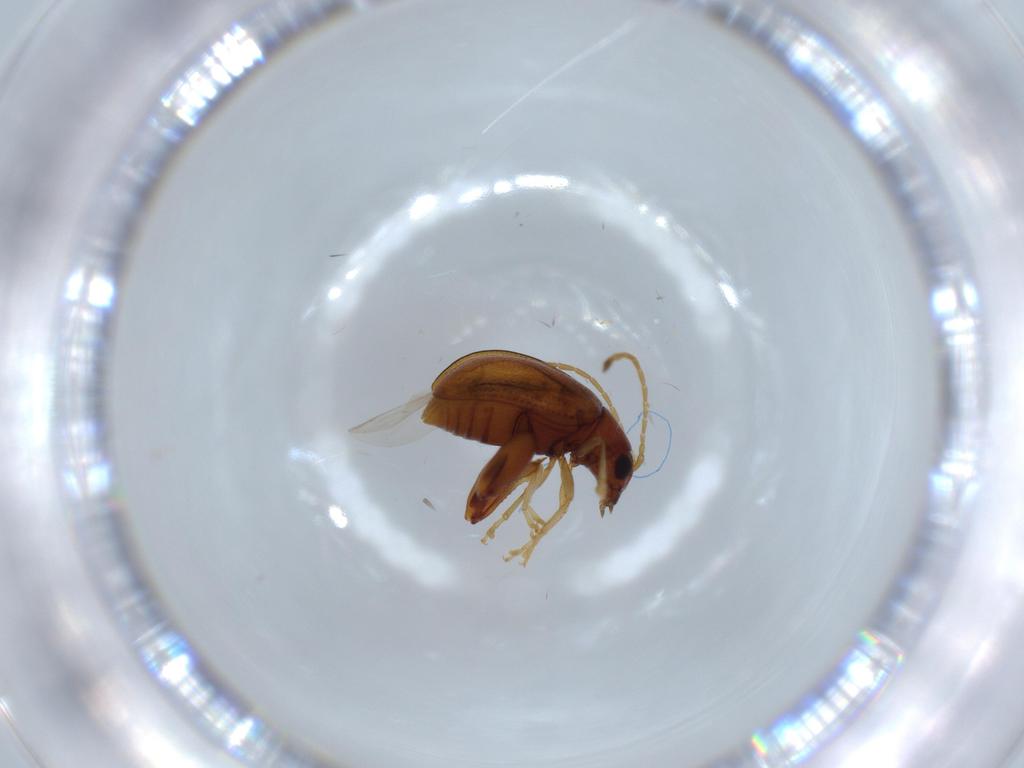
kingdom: Animalia
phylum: Arthropoda
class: Insecta
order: Coleoptera
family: Chrysomelidae
